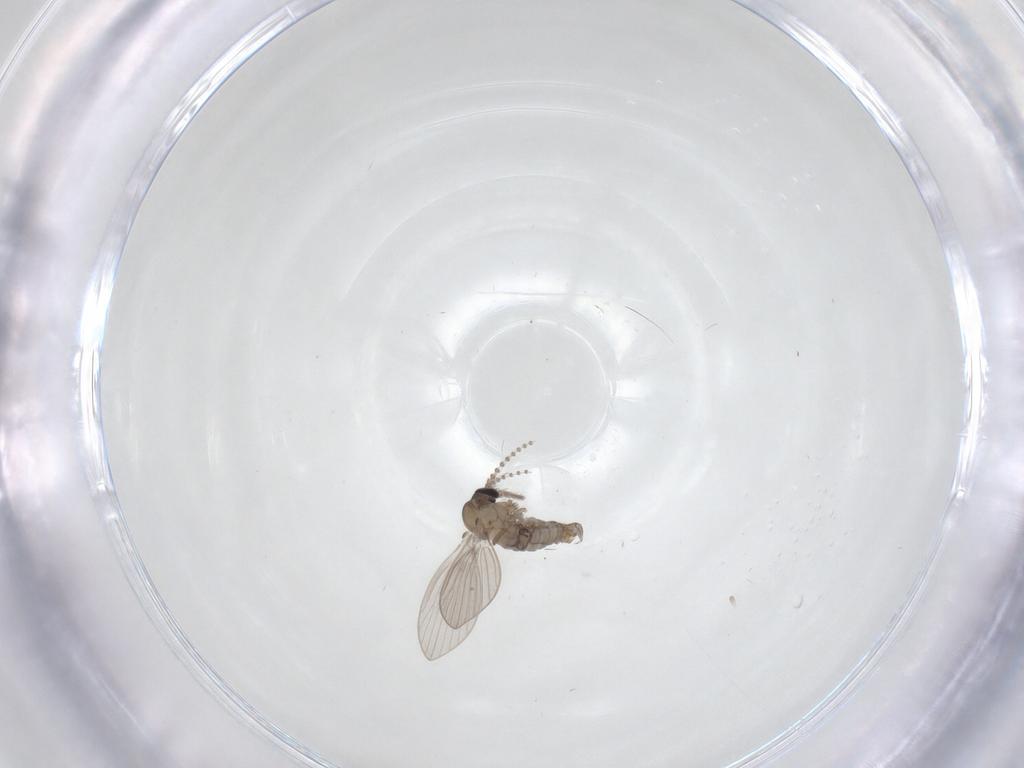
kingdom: Animalia
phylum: Arthropoda
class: Insecta
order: Diptera
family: Psychodidae
